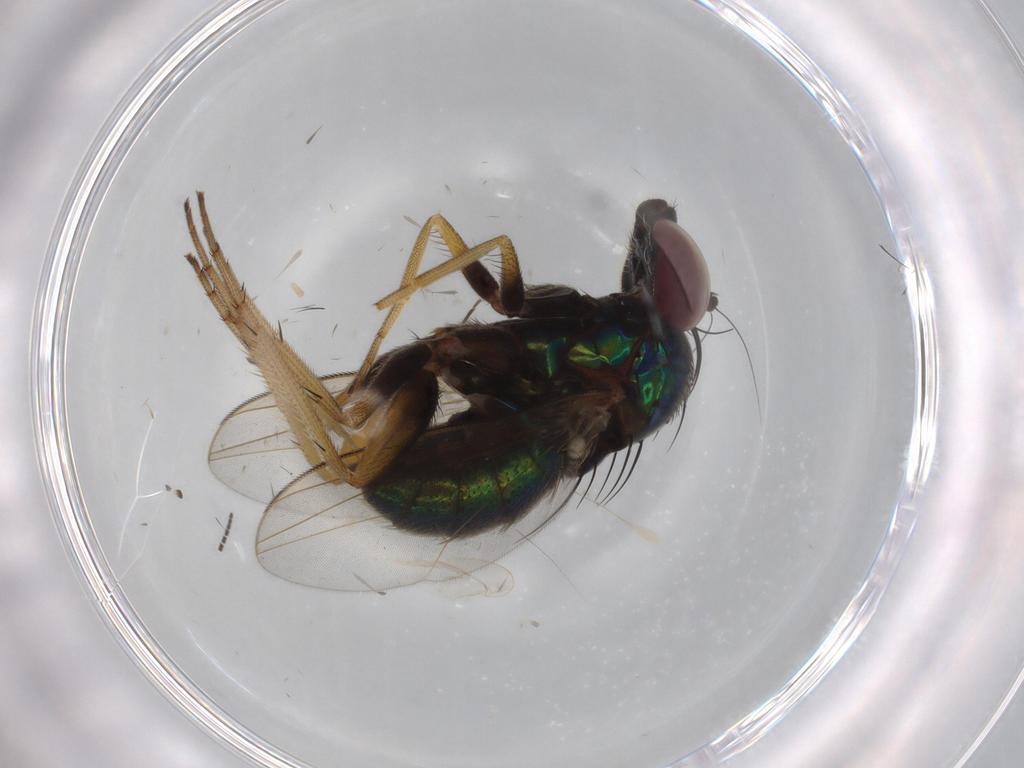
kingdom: Animalia
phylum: Arthropoda
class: Insecta
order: Diptera
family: Cecidomyiidae
